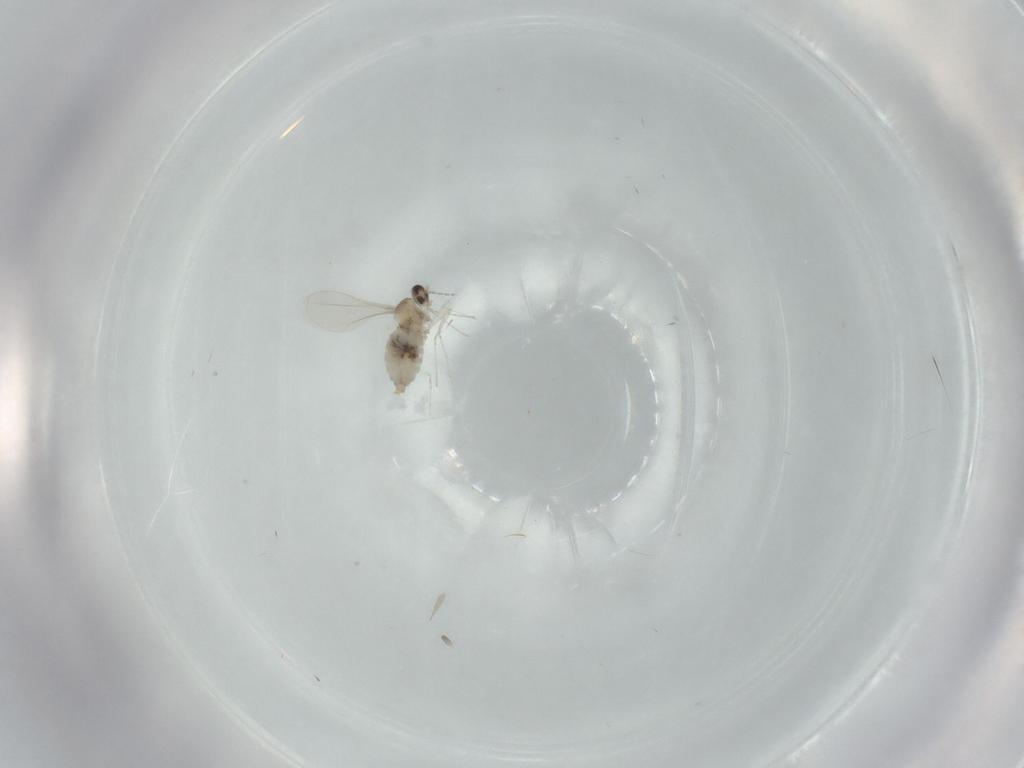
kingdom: Animalia
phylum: Arthropoda
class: Insecta
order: Diptera
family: Cecidomyiidae
